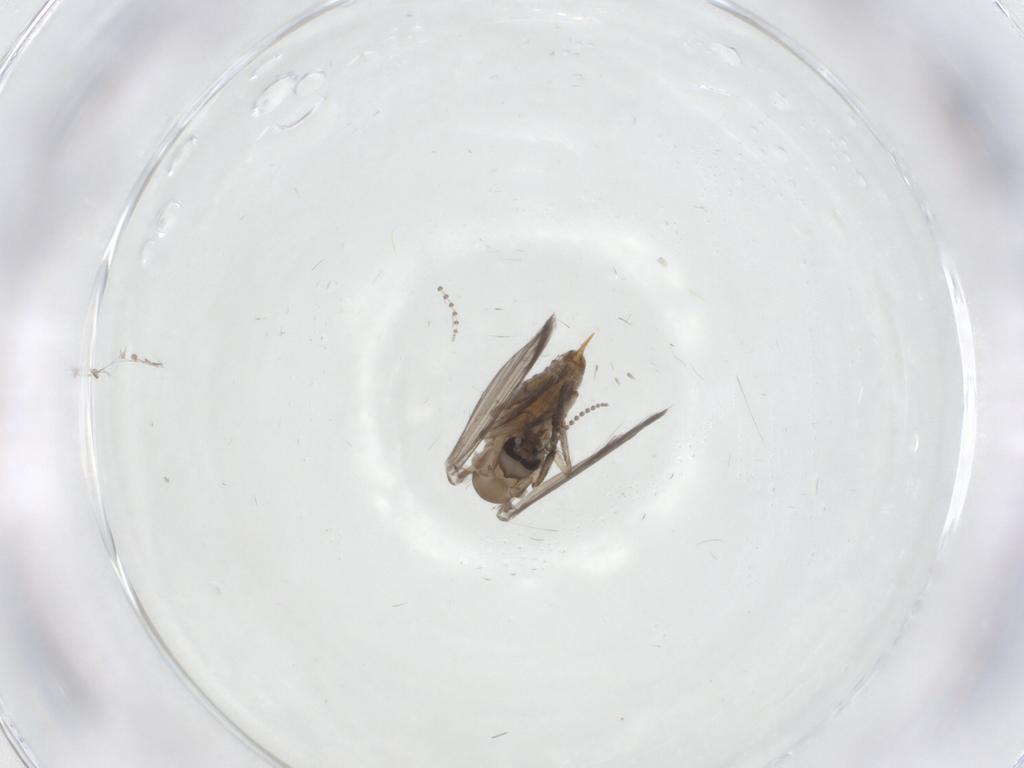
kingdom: Animalia
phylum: Arthropoda
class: Insecta
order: Diptera
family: Psychodidae
